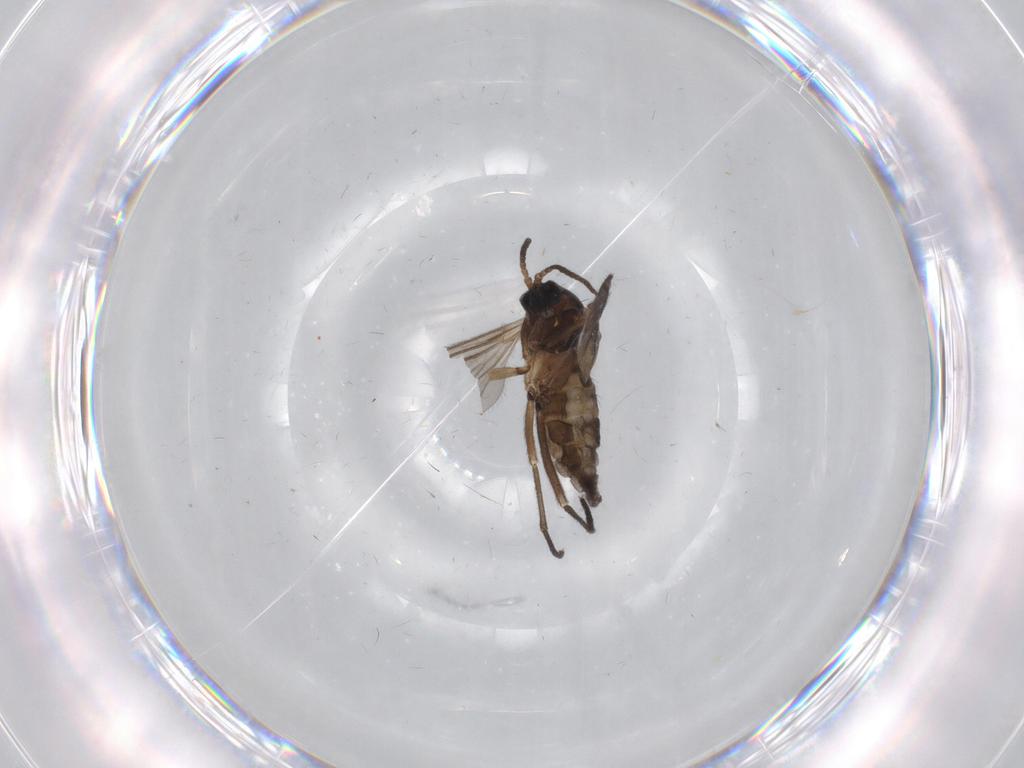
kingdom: Animalia
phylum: Arthropoda
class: Insecta
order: Diptera
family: Sciaridae
